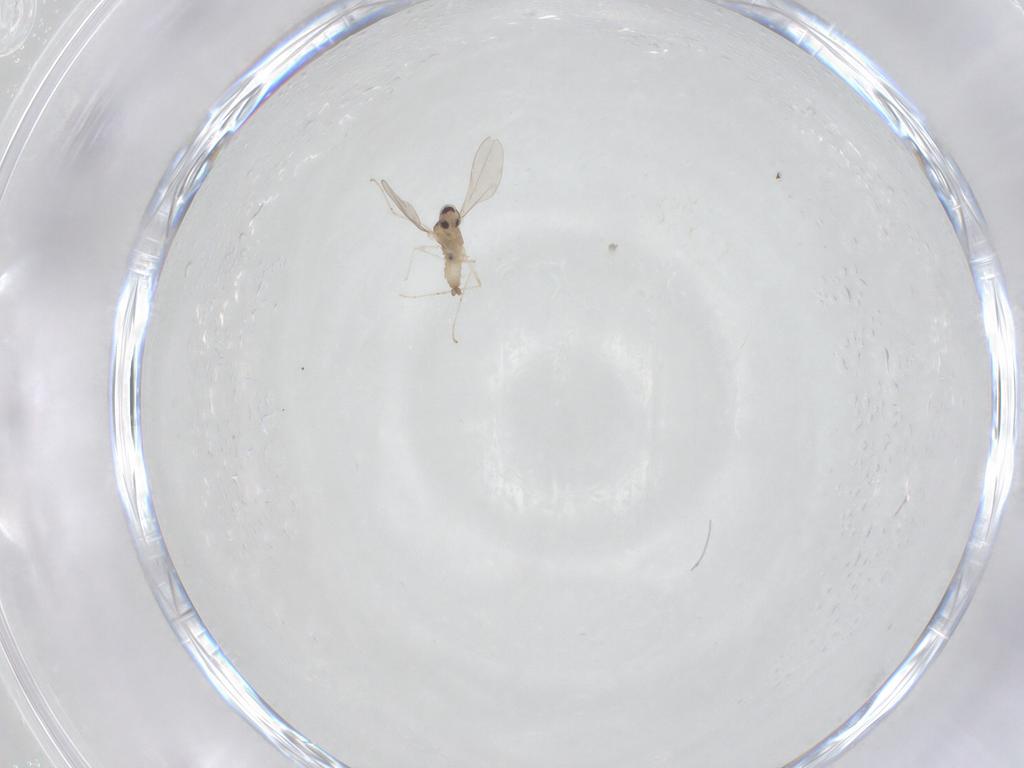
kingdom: Animalia
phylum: Arthropoda
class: Insecta
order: Diptera
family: Cecidomyiidae
